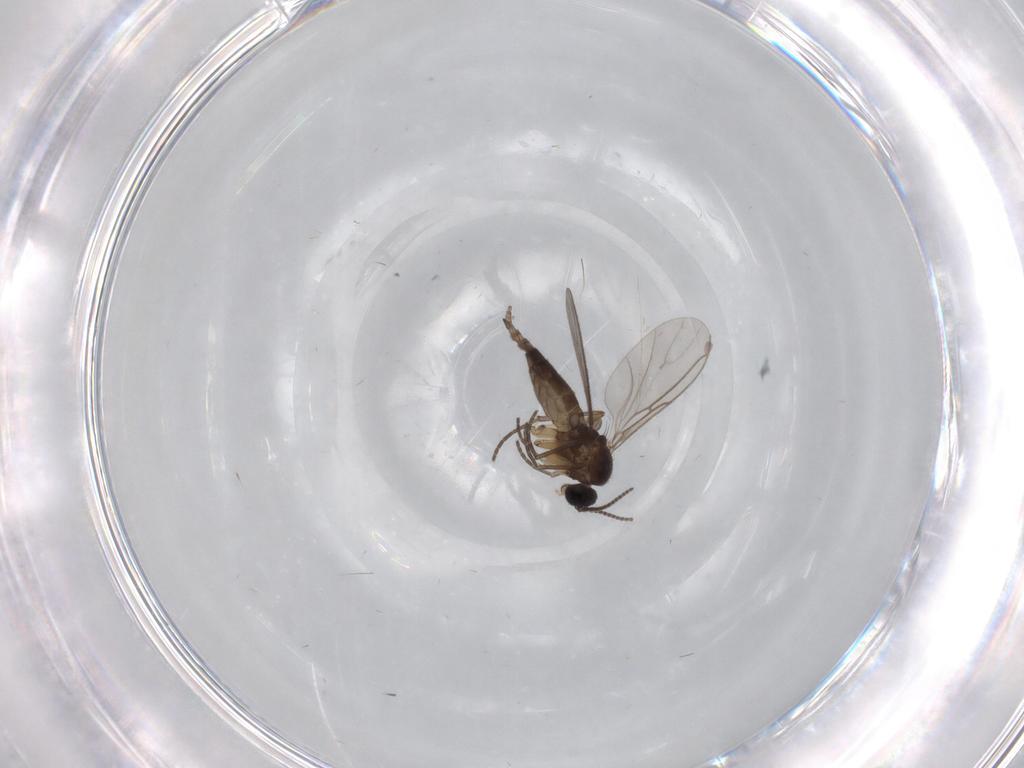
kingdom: Animalia
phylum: Arthropoda
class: Insecta
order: Diptera
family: Sciaridae
